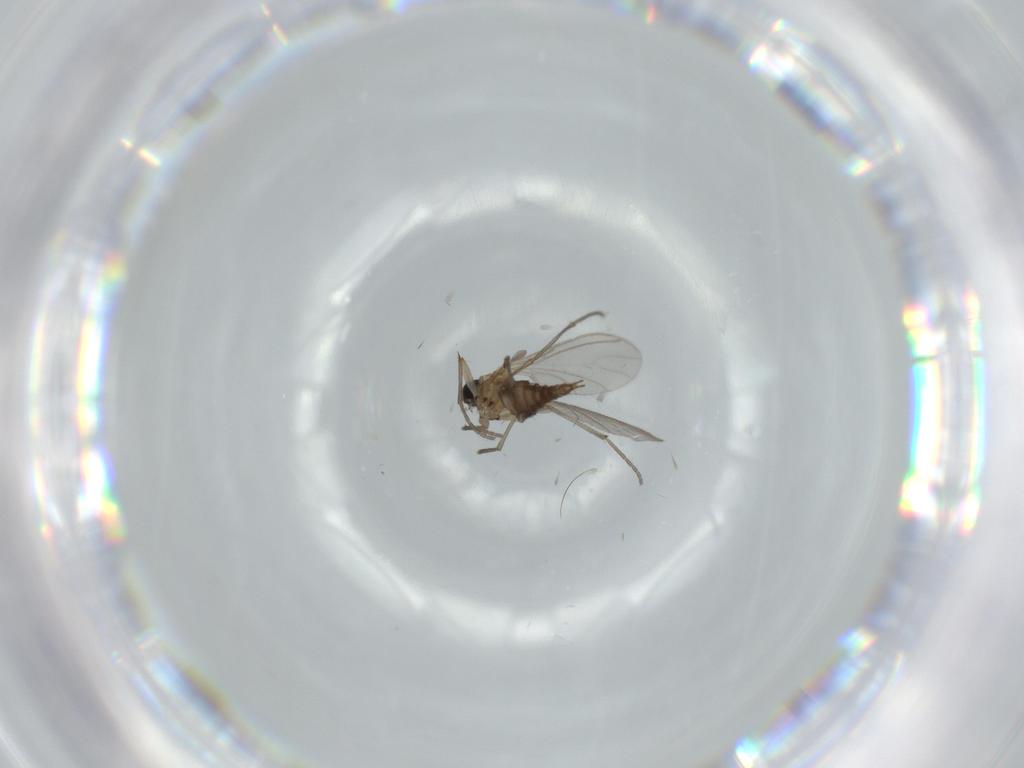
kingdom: Animalia
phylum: Arthropoda
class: Insecta
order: Diptera
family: Sciaridae
